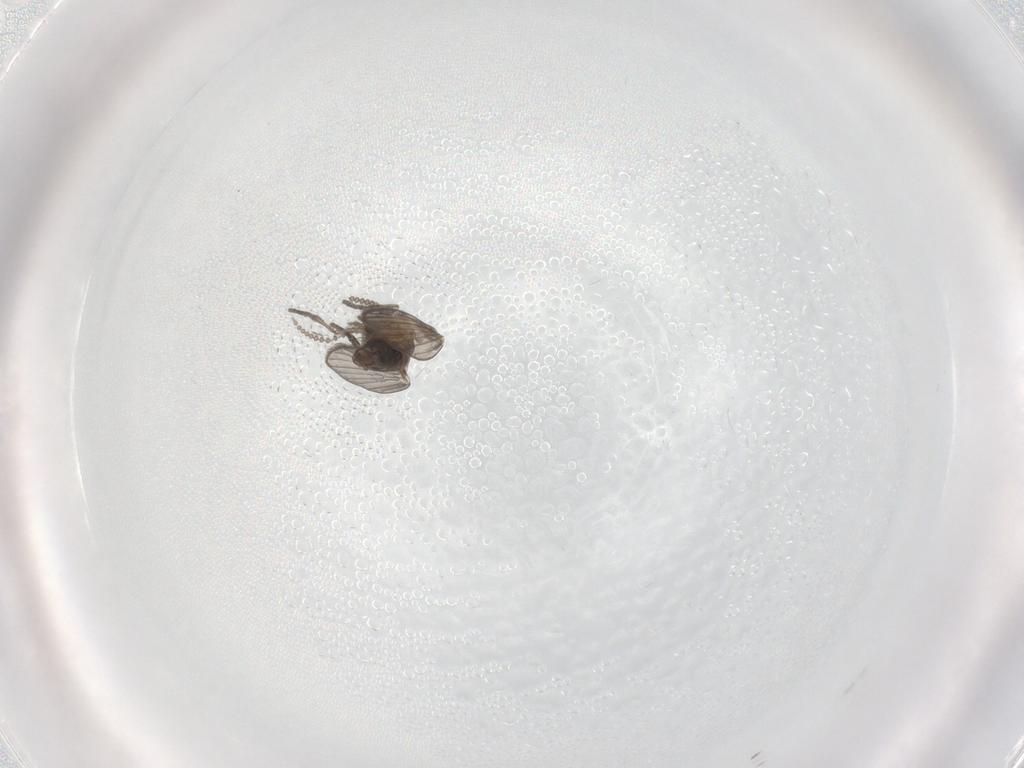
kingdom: Animalia
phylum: Arthropoda
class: Insecta
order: Diptera
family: Psychodidae
